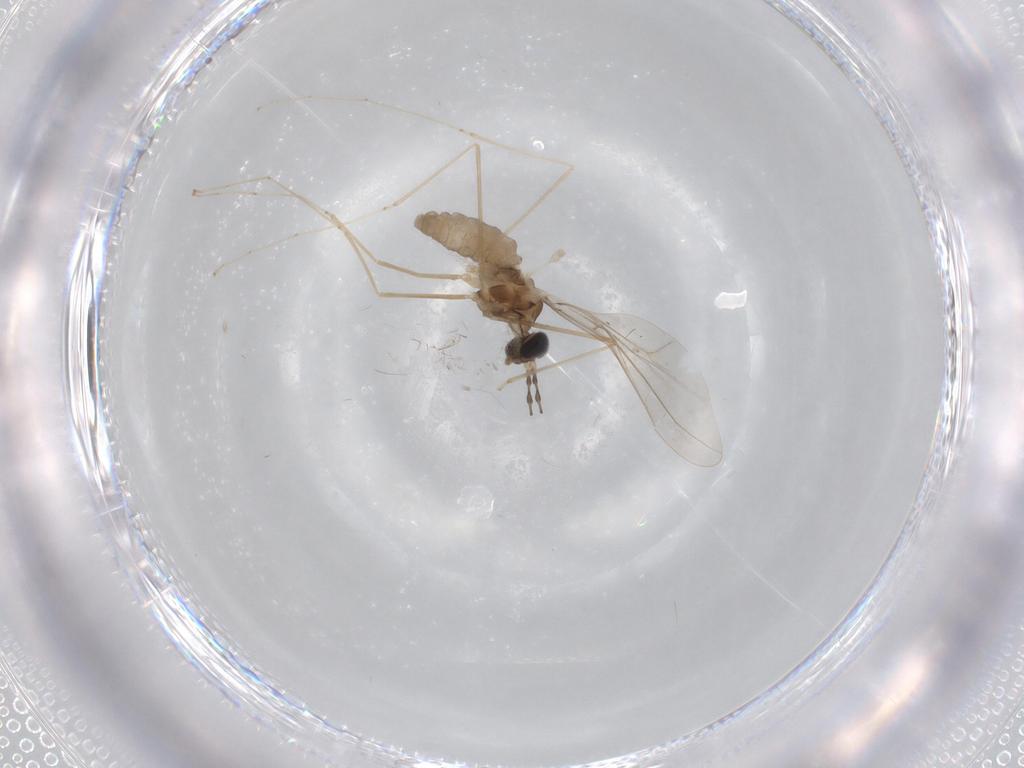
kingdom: Animalia
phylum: Arthropoda
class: Insecta
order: Diptera
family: Cecidomyiidae
